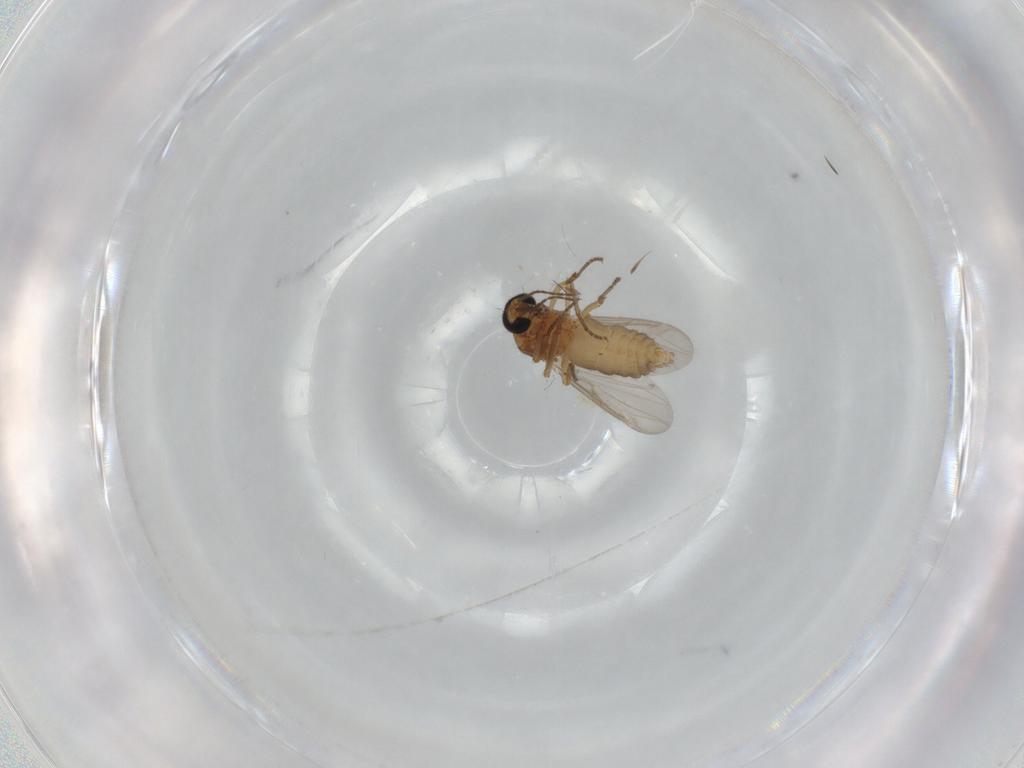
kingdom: Animalia
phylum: Arthropoda
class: Insecta
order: Diptera
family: Ceratopogonidae
